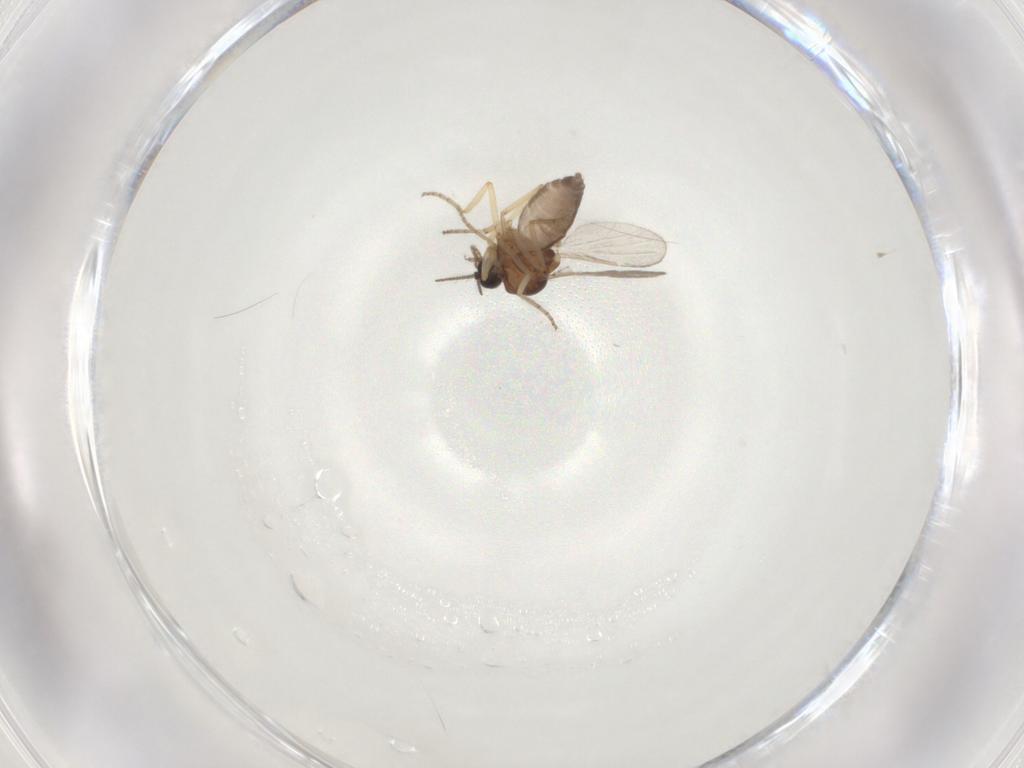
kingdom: Animalia
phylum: Arthropoda
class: Insecta
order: Diptera
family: Ceratopogonidae
